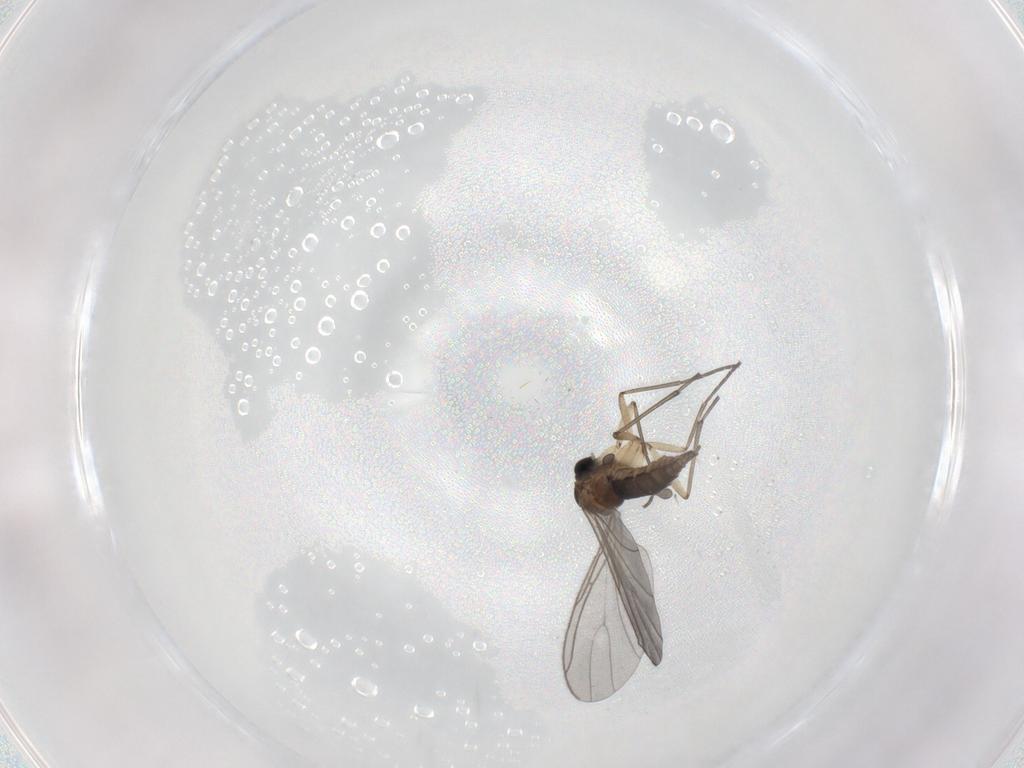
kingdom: Animalia
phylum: Arthropoda
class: Insecta
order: Diptera
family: Sciaridae
